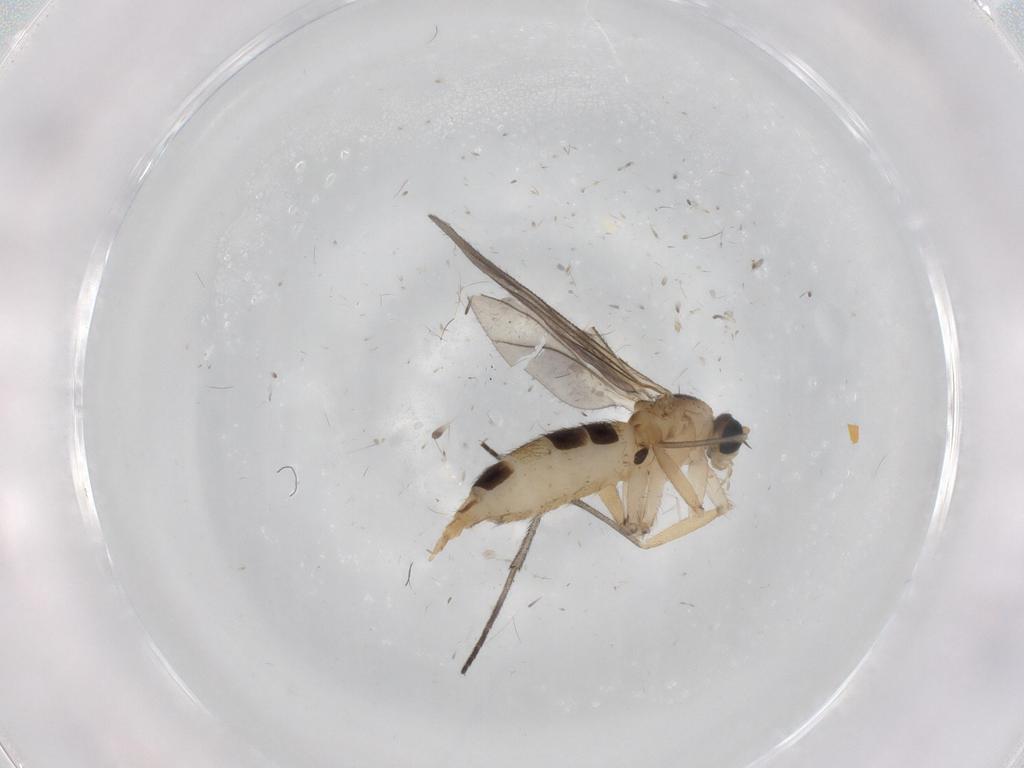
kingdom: Animalia
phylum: Arthropoda
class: Insecta
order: Diptera
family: Sciaridae
